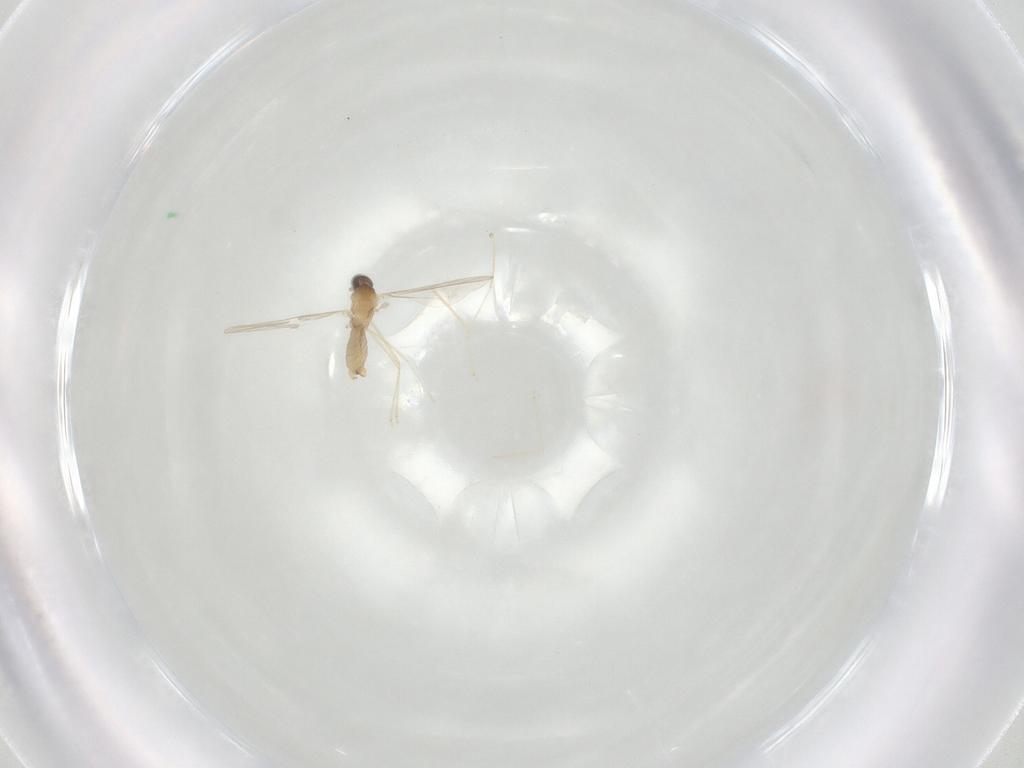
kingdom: Animalia
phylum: Arthropoda
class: Insecta
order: Diptera
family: Cecidomyiidae
